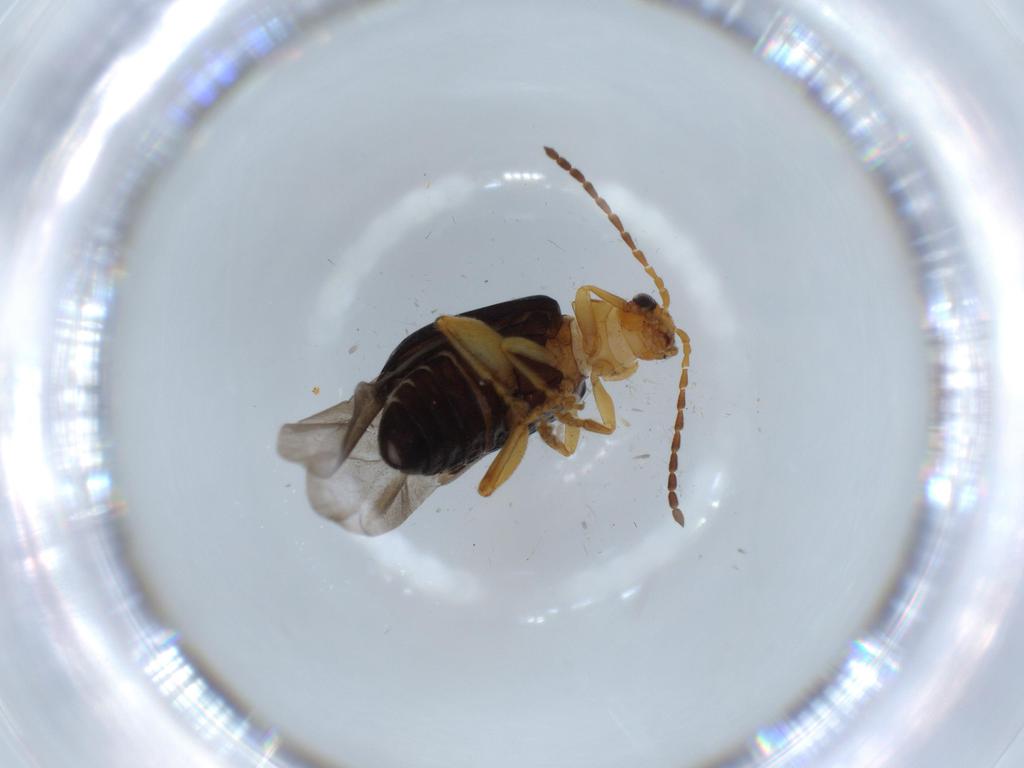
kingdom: Animalia
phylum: Arthropoda
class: Insecta
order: Coleoptera
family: Chrysomelidae
